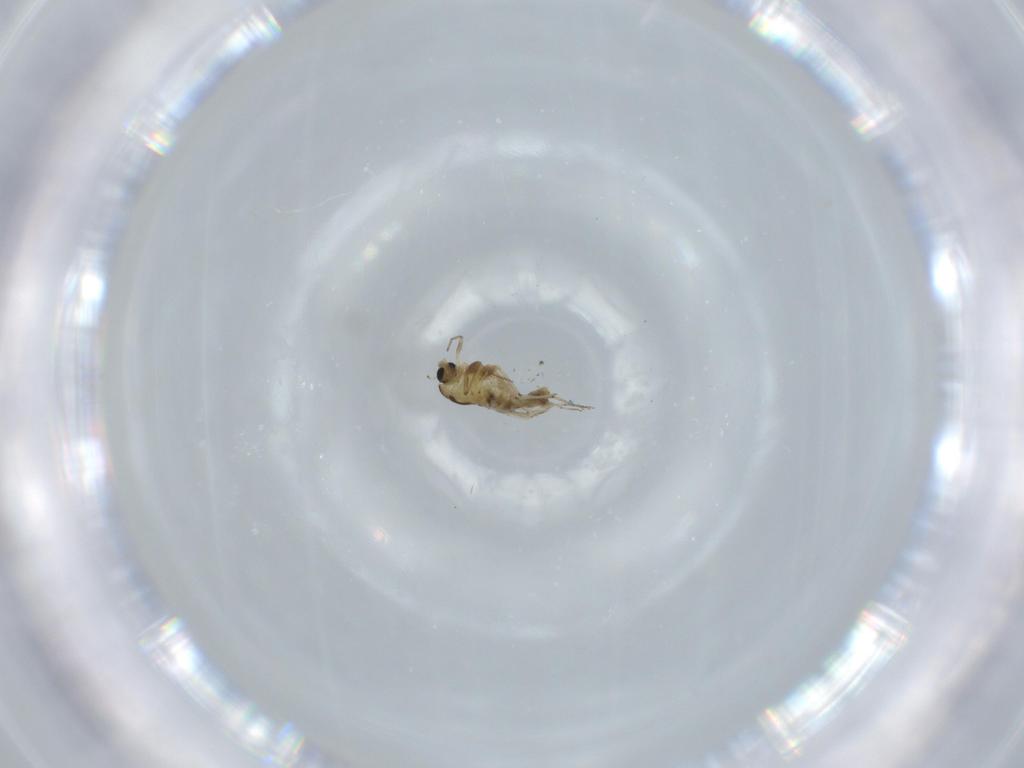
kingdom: Animalia
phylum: Arthropoda
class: Insecta
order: Diptera
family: Chironomidae
